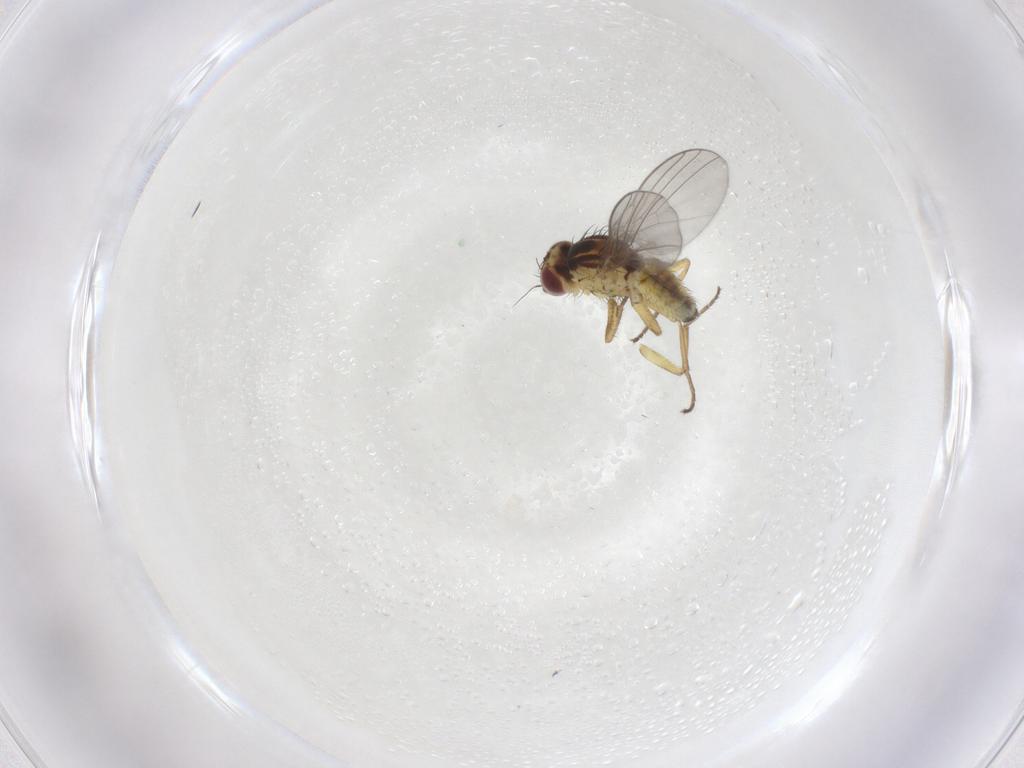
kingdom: Animalia
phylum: Arthropoda
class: Insecta
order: Diptera
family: Agromyzidae
